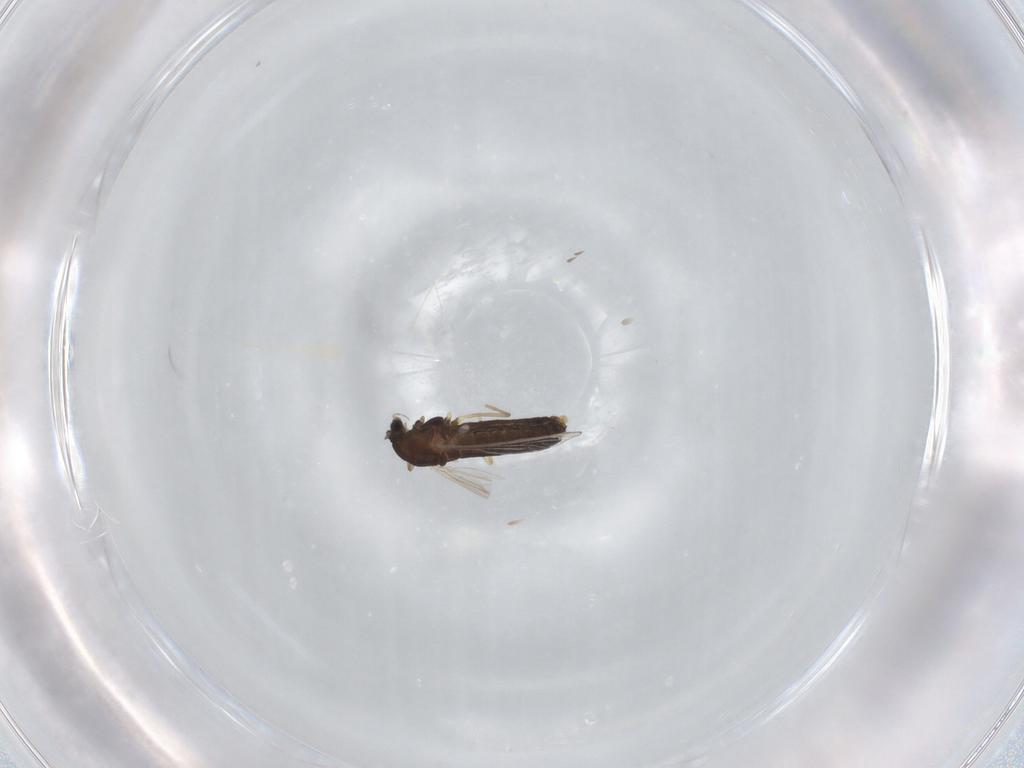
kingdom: Animalia
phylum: Arthropoda
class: Insecta
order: Diptera
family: Chironomidae
